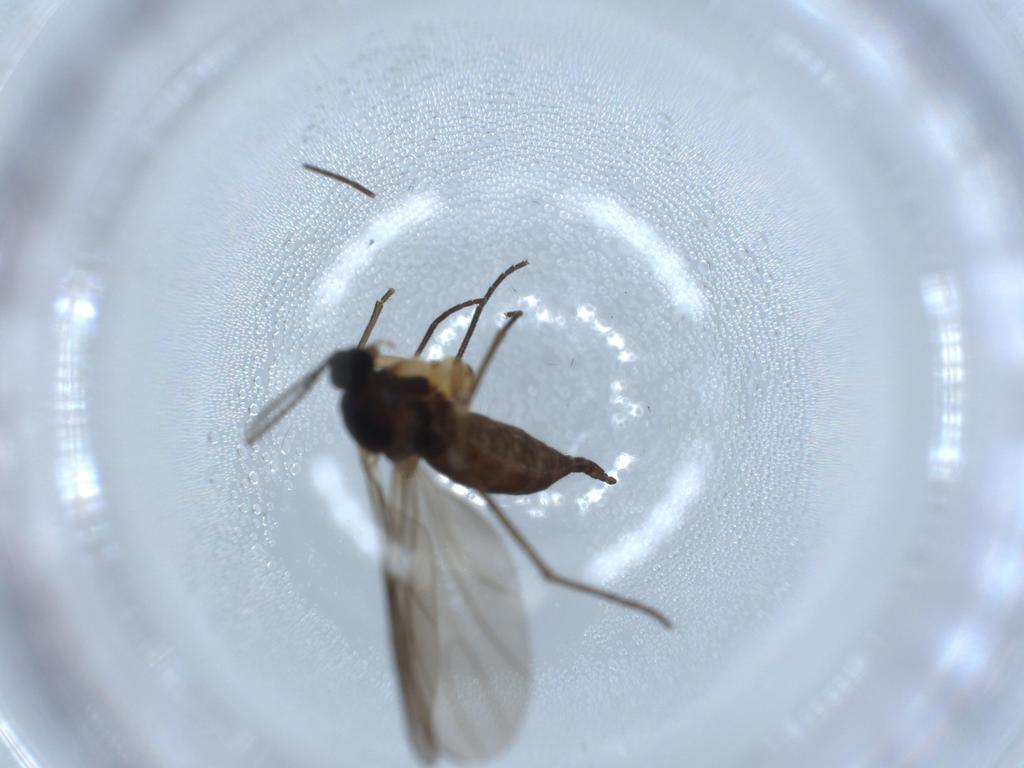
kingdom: Animalia
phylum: Arthropoda
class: Insecta
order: Diptera
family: Sciaridae
